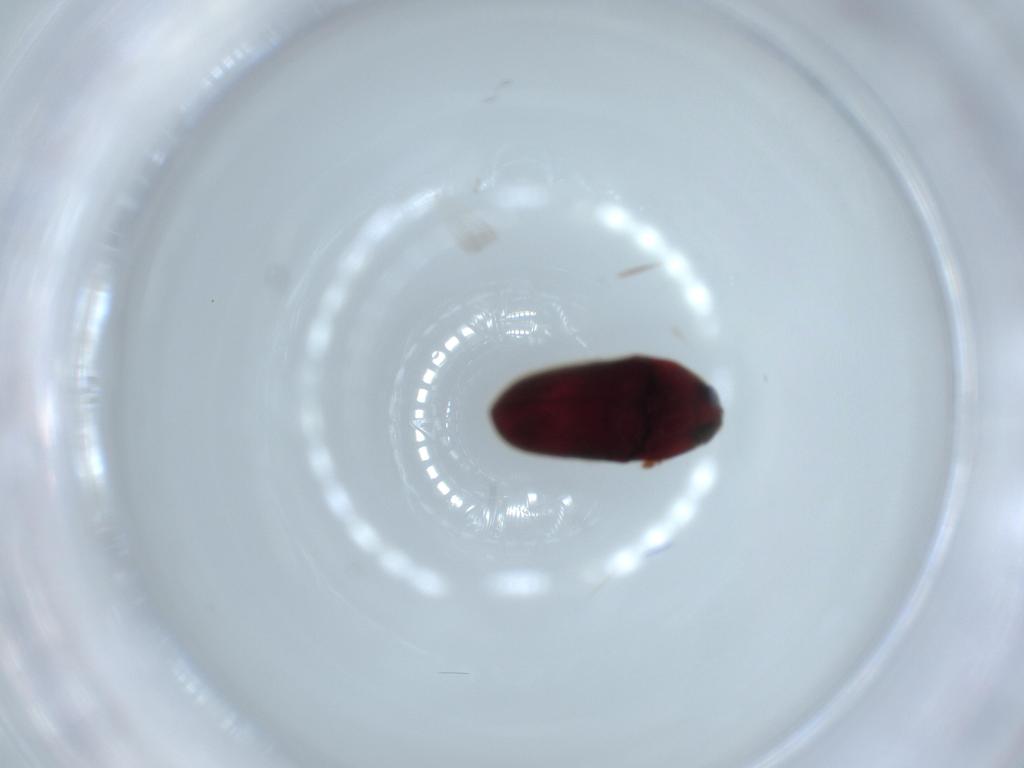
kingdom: Animalia
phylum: Arthropoda
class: Insecta
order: Coleoptera
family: Throscidae
